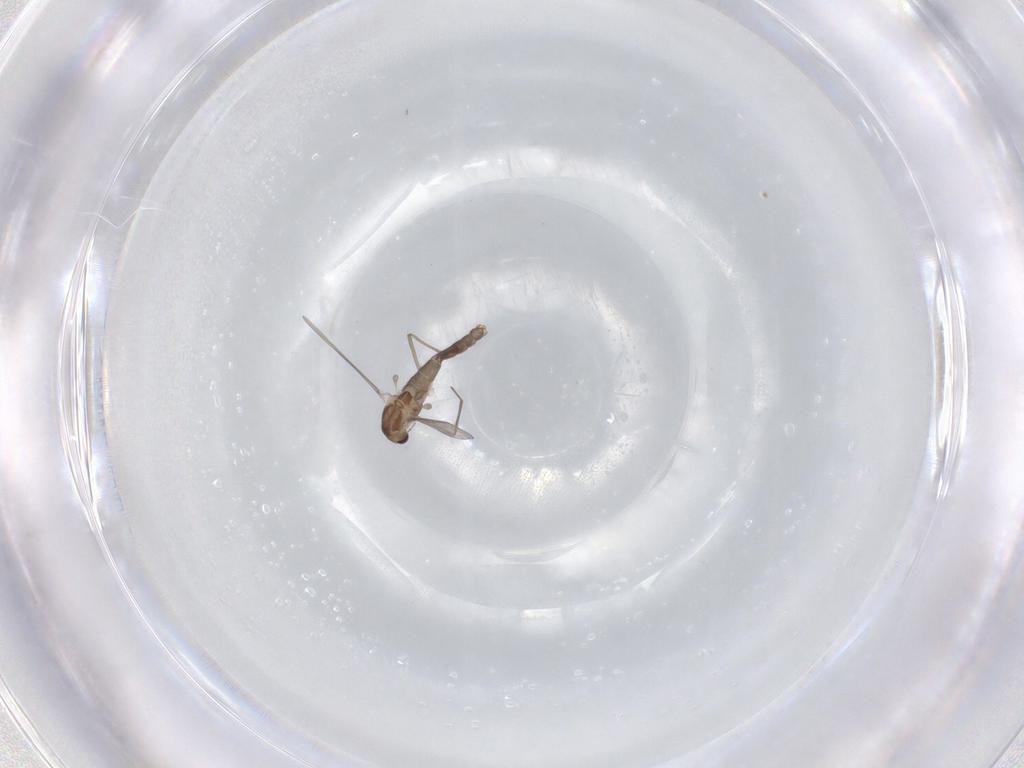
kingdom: Animalia
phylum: Arthropoda
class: Insecta
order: Diptera
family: Chironomidae
